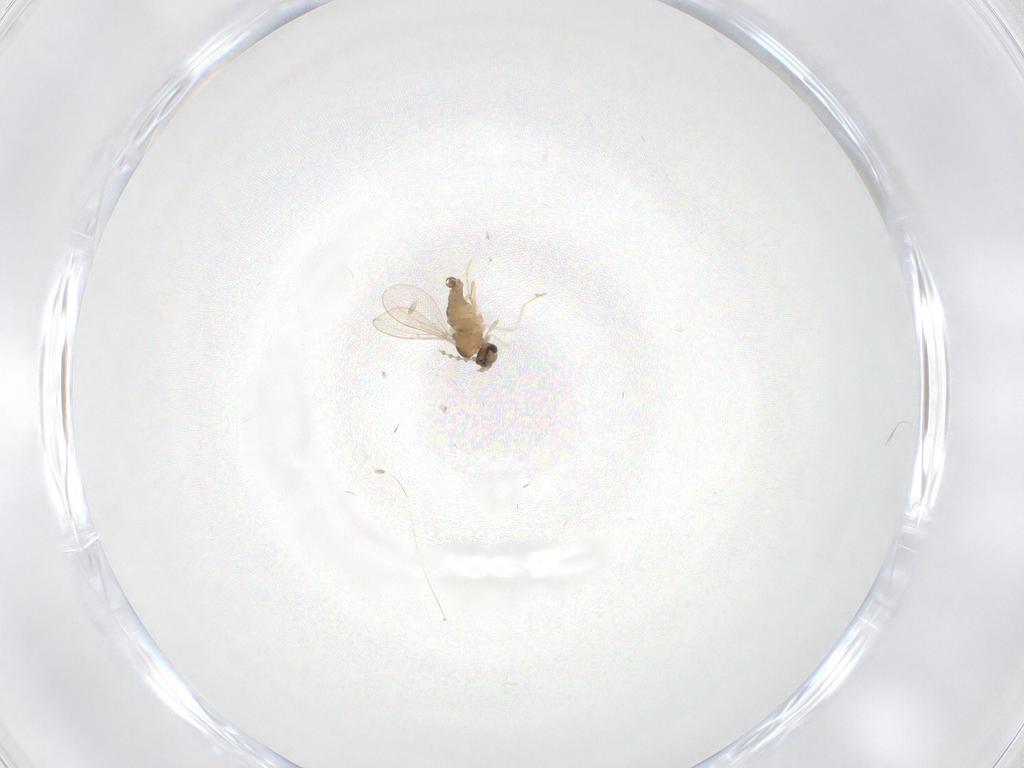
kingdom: Animalia
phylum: Arthropoda
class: Insecta
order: Diptera
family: Cecidomyiidae
